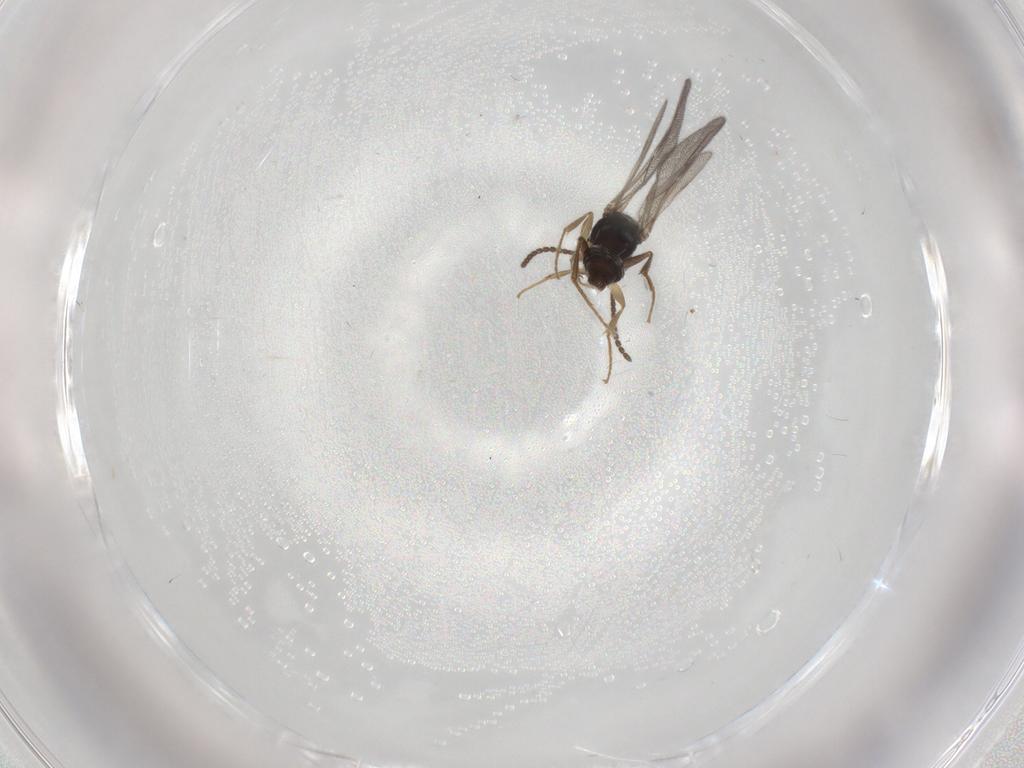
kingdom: Animalia
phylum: Arthropoda
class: Insecta
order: Hymenoptera
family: Bethylidae
